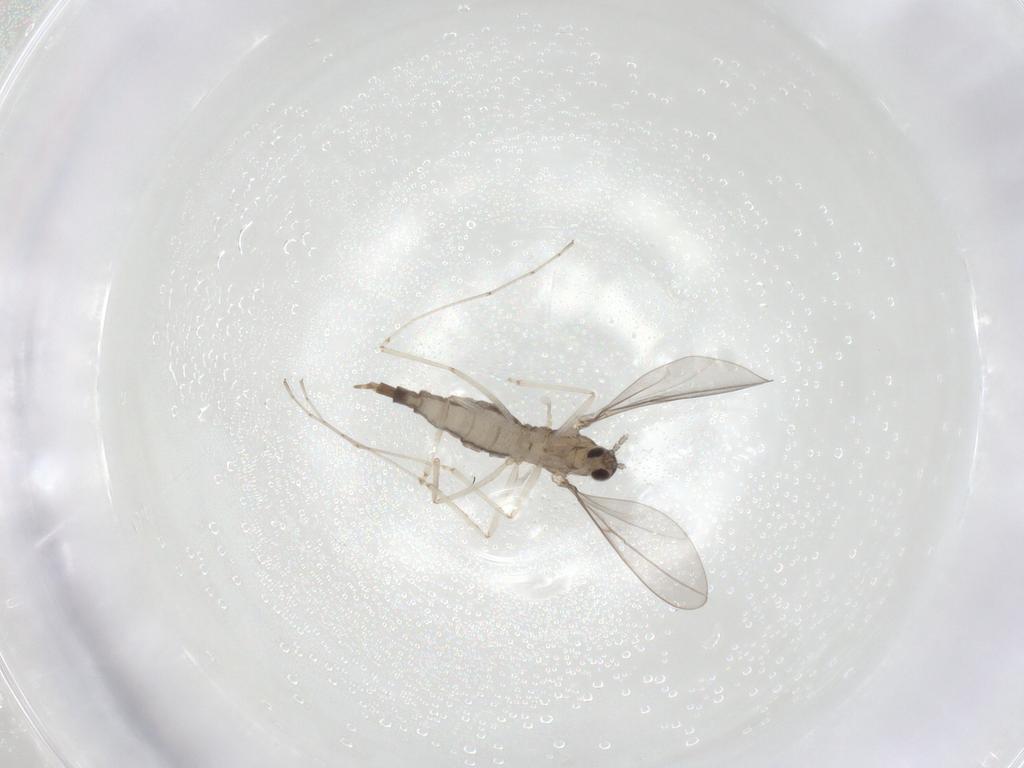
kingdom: Animalia
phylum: Arthropoda
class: Insecta
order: Diptera
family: Cecidomyiidae
